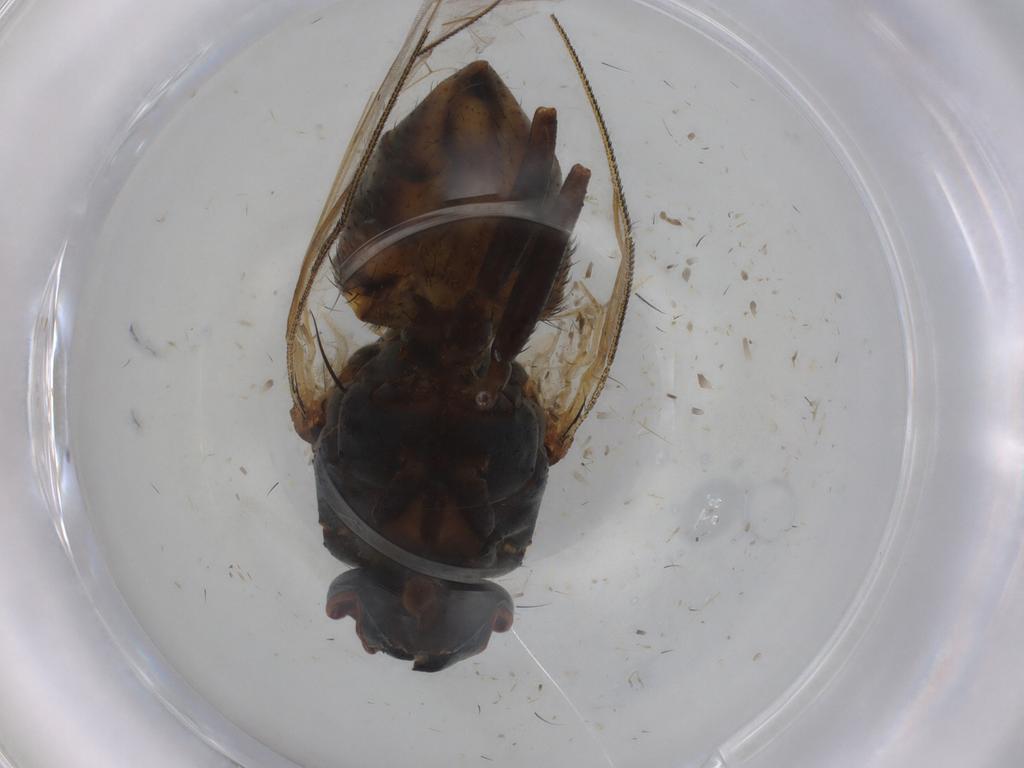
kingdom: Animalia
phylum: Arthropoda
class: Insecta
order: Diptera
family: Muscidae
